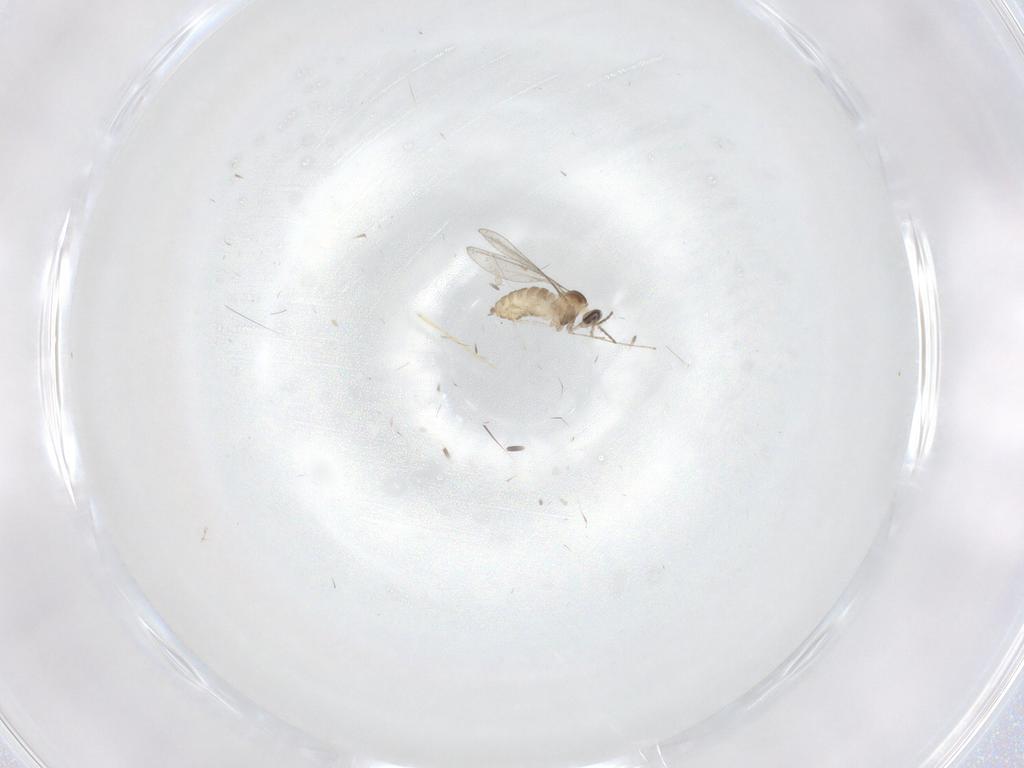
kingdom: Animalia
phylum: Arthropoda
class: Insecta
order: Diptera
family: Cecidomyiidae
